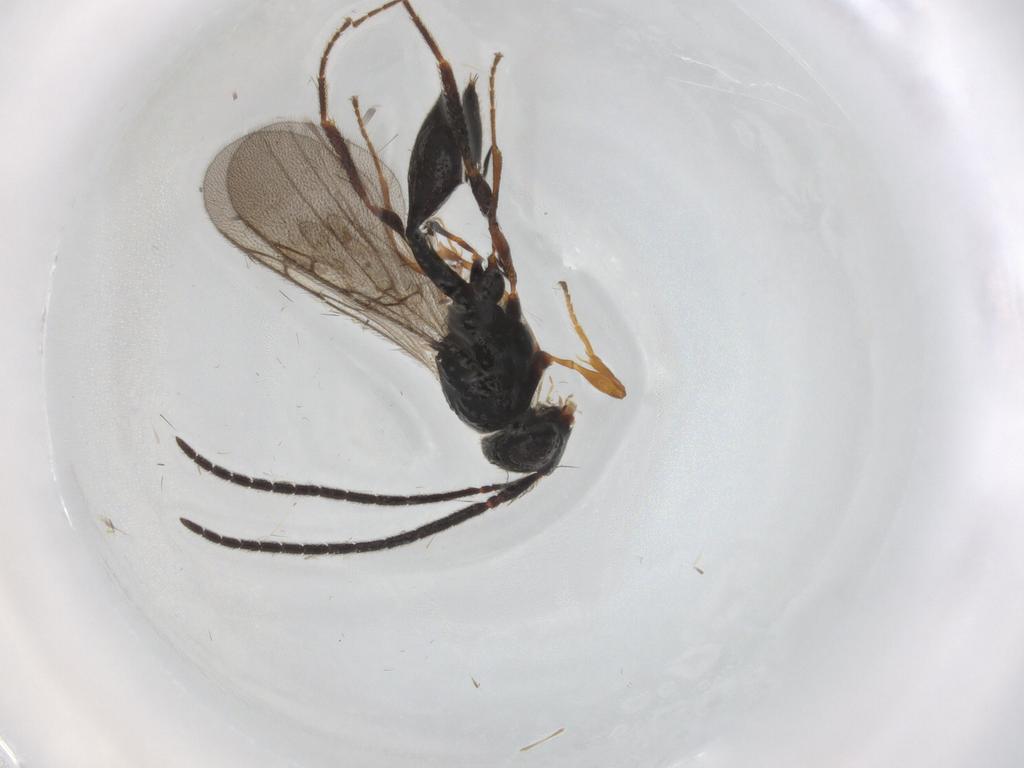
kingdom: Animalia
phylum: Arthropoda
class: Insecta
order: Hymenoptera
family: Diapriidae
